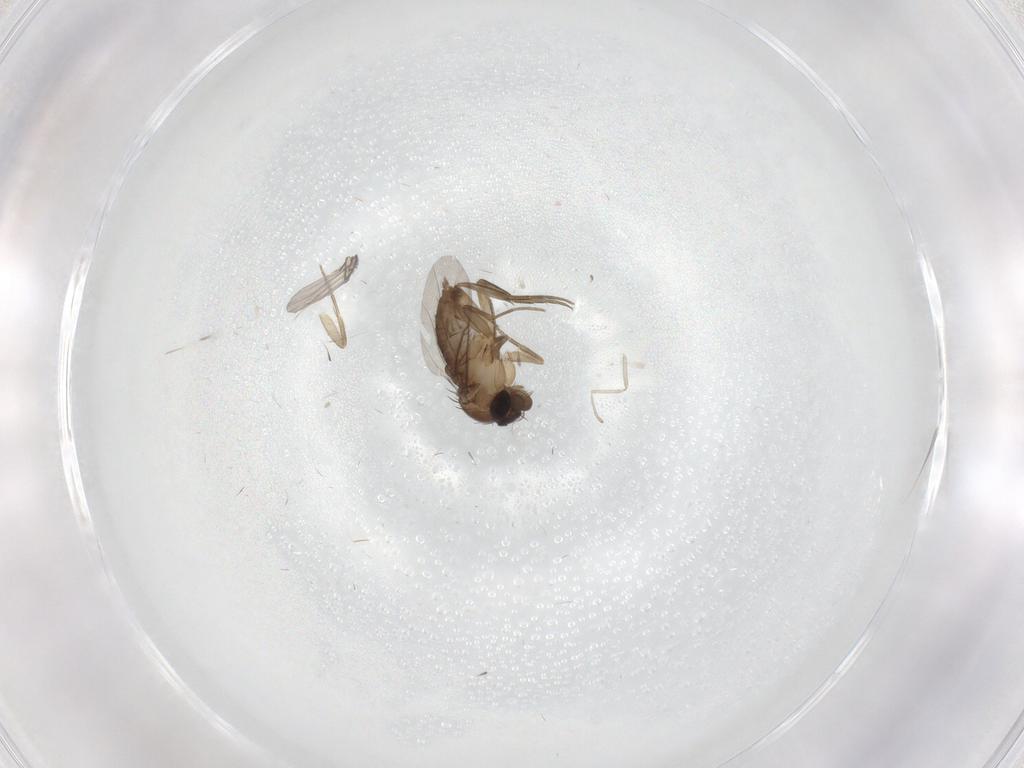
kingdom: Animalia
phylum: Arthropoda
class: Insecta
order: Diptera
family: Phoridae
